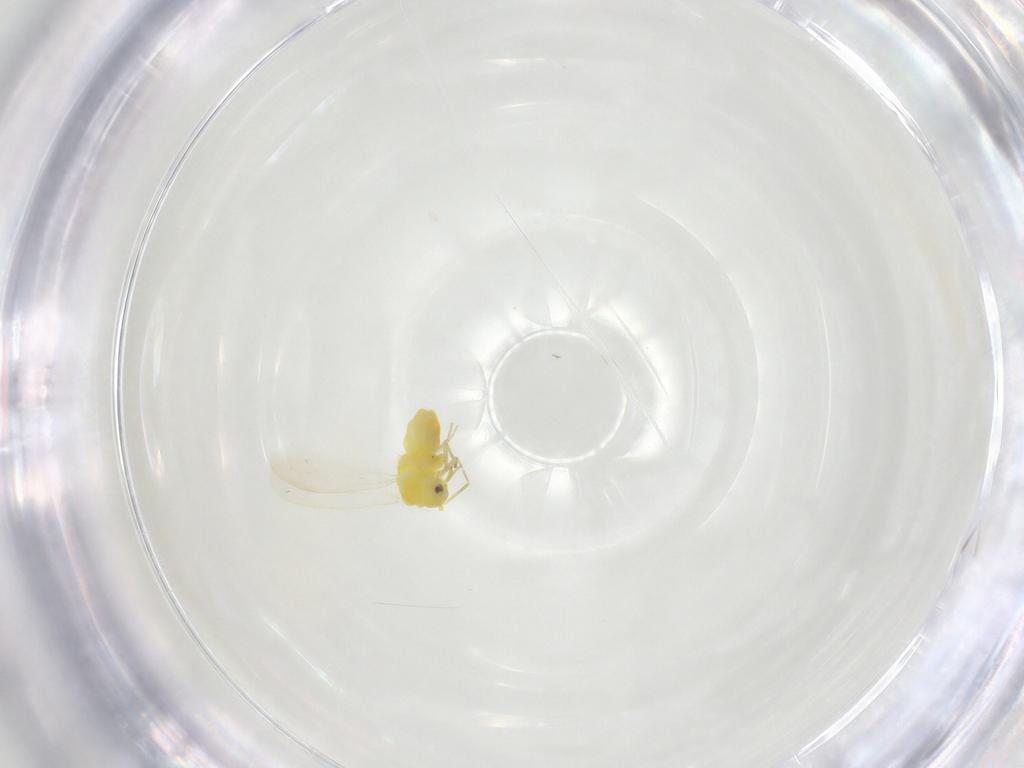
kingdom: Animalia
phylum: Arthropoda
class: Insecta
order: Hemiptera
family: Aleyrodidae
